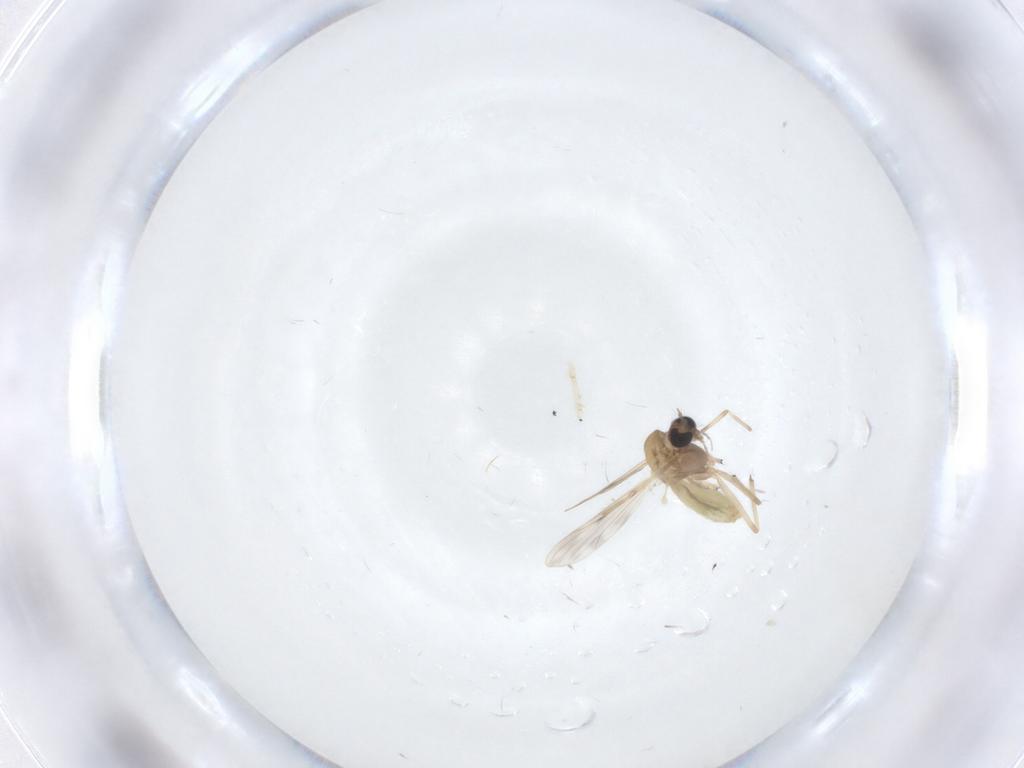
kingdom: Animalia
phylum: Arthropoda
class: Insecta
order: Diptera
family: Chironomidae
